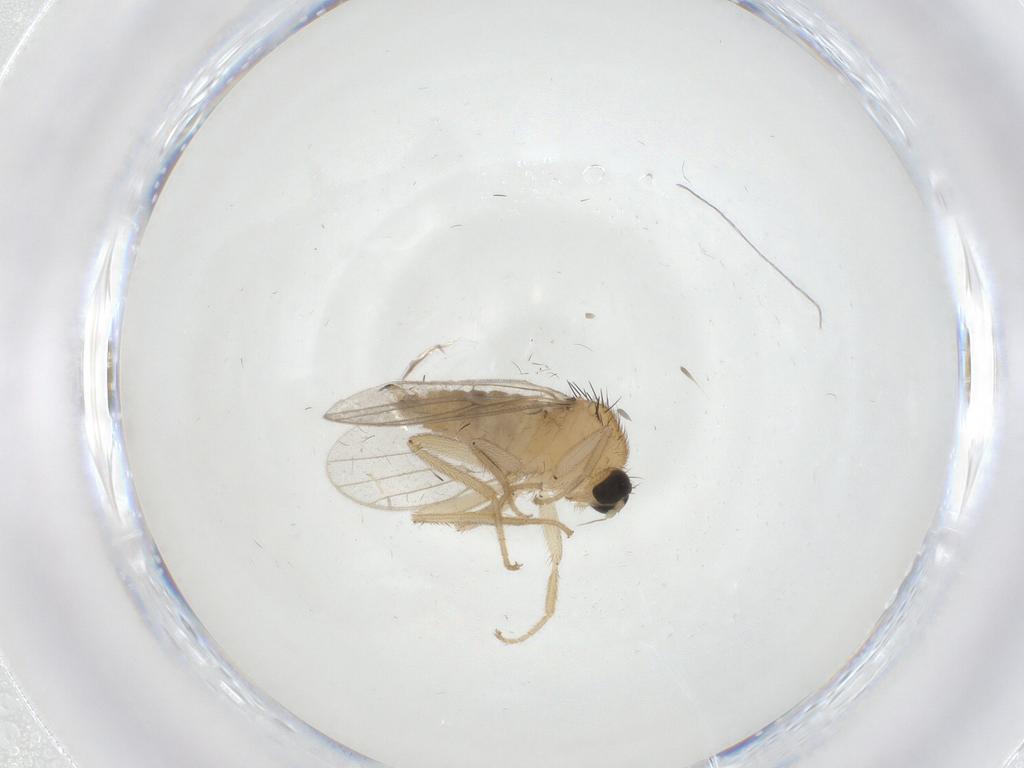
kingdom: Animalia
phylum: Arthropoda
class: Insecta
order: Diptera
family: Hybotidae
